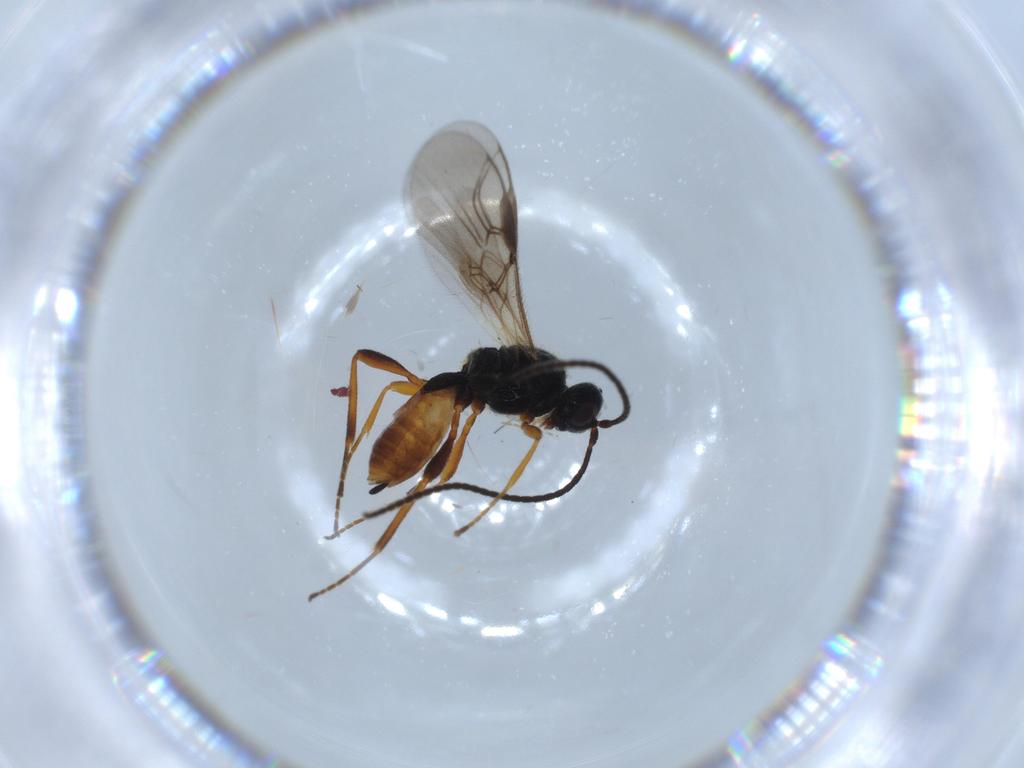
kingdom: Animalia
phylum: Arthropoda
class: Insecta
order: Hymenoptera
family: Braconidae
